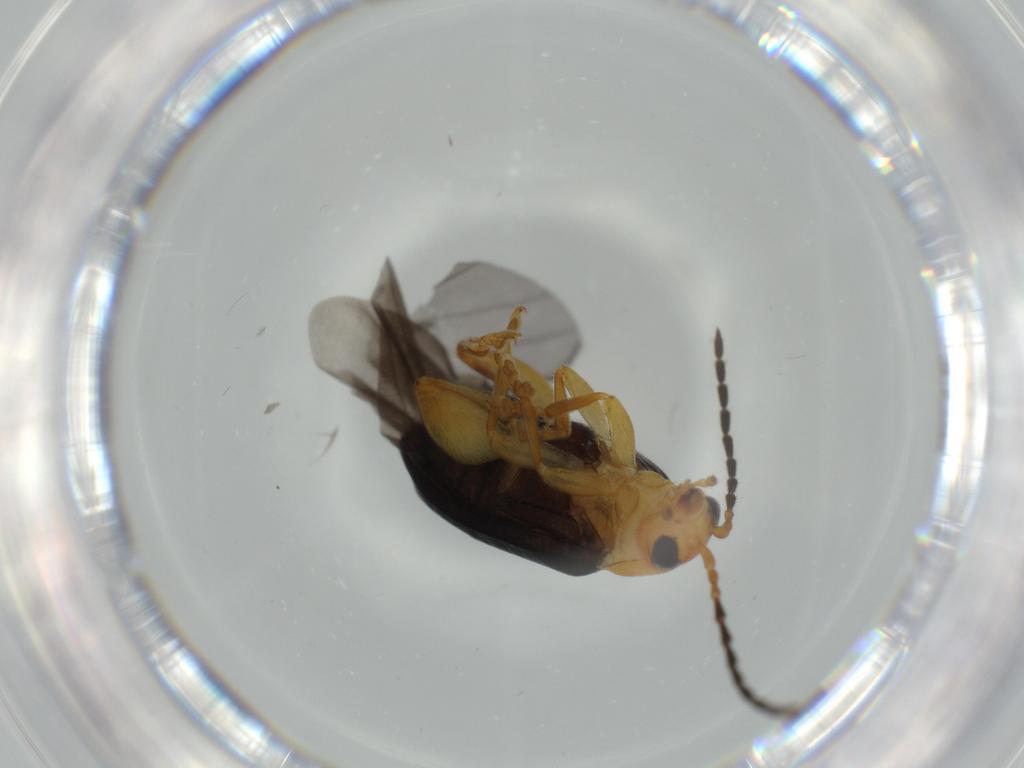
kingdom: Animalia
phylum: Arthropoda
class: Insecta
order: Coleoptera
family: Chrysomelidae
